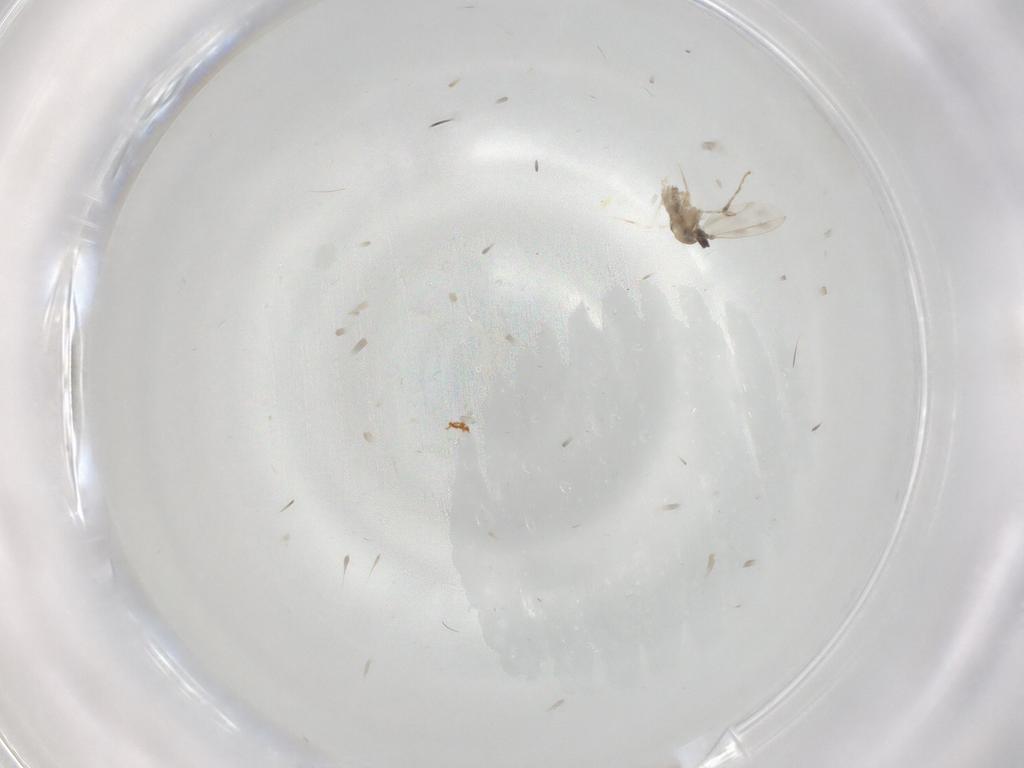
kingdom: Animalia
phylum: Arthropoda
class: Insecta
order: Diptera
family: Cecidomyiidae
